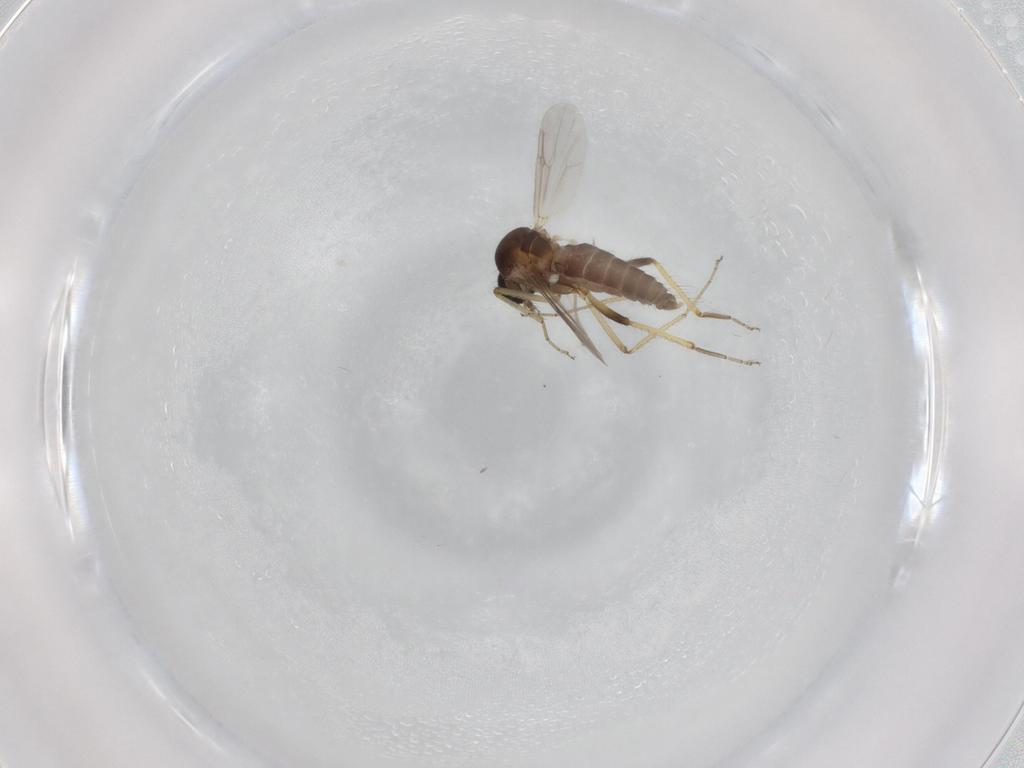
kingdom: Animalia
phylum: Arthropoda
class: Insecta
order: Diptera
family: Ceratopogonidae
